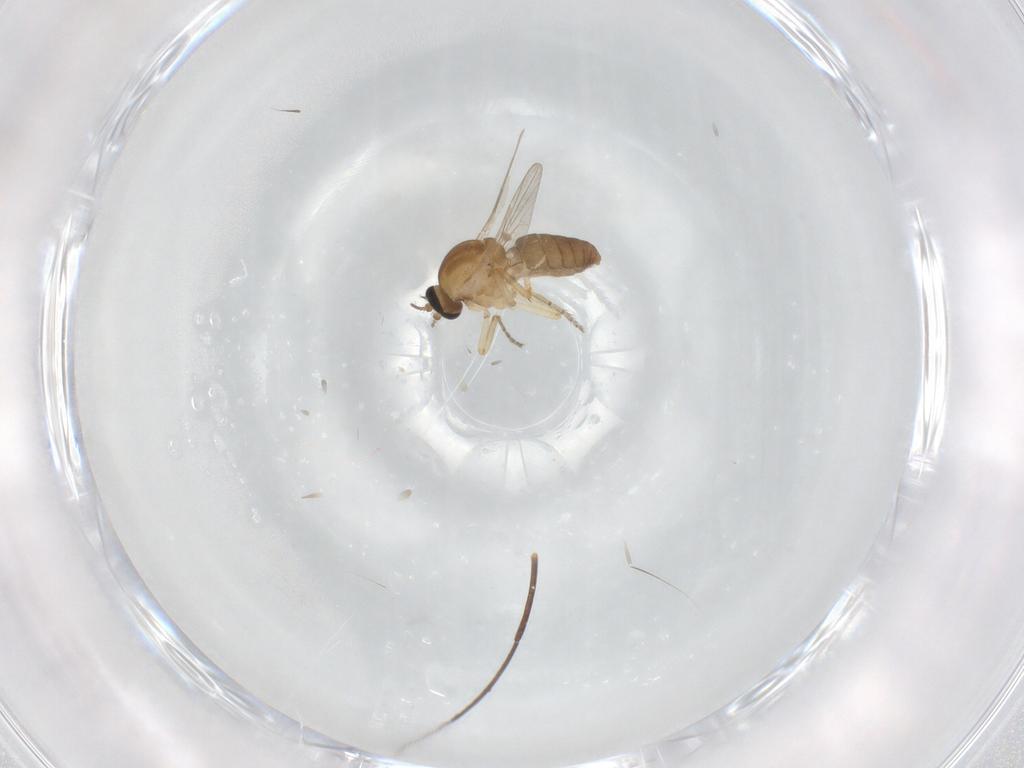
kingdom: Animalia
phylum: Arthropoda
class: Insecta
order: Diptera
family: Ceratopogonidae
